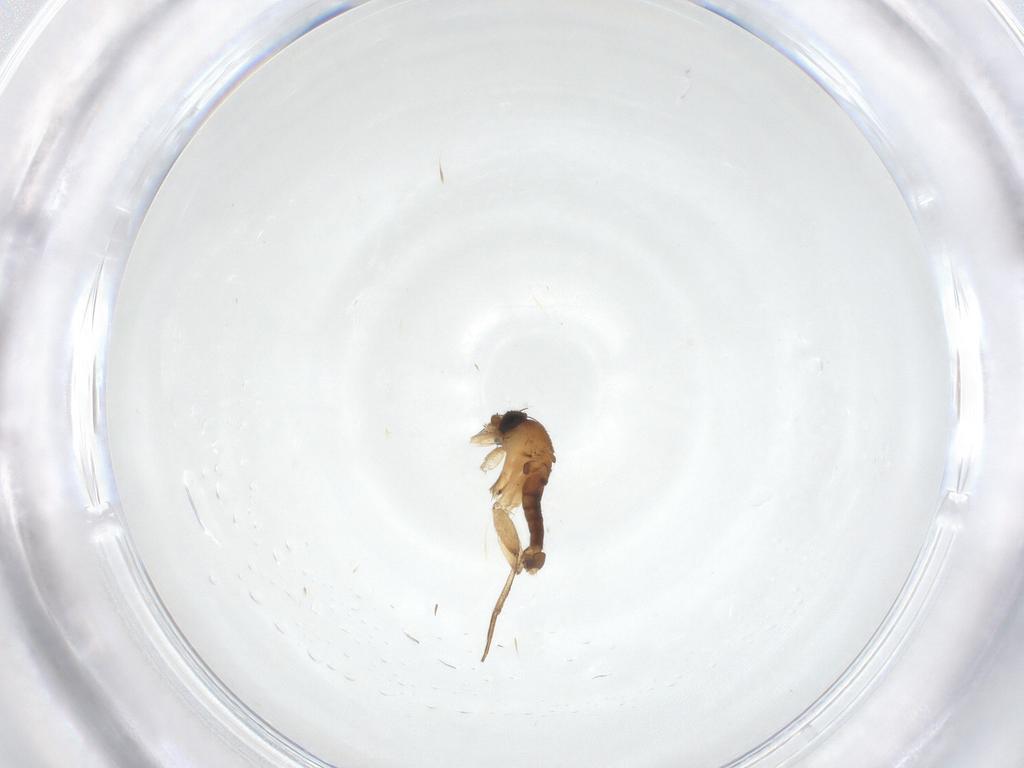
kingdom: Animalia
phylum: Arthropoda
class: Insecta
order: Diptera
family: Phoridae
